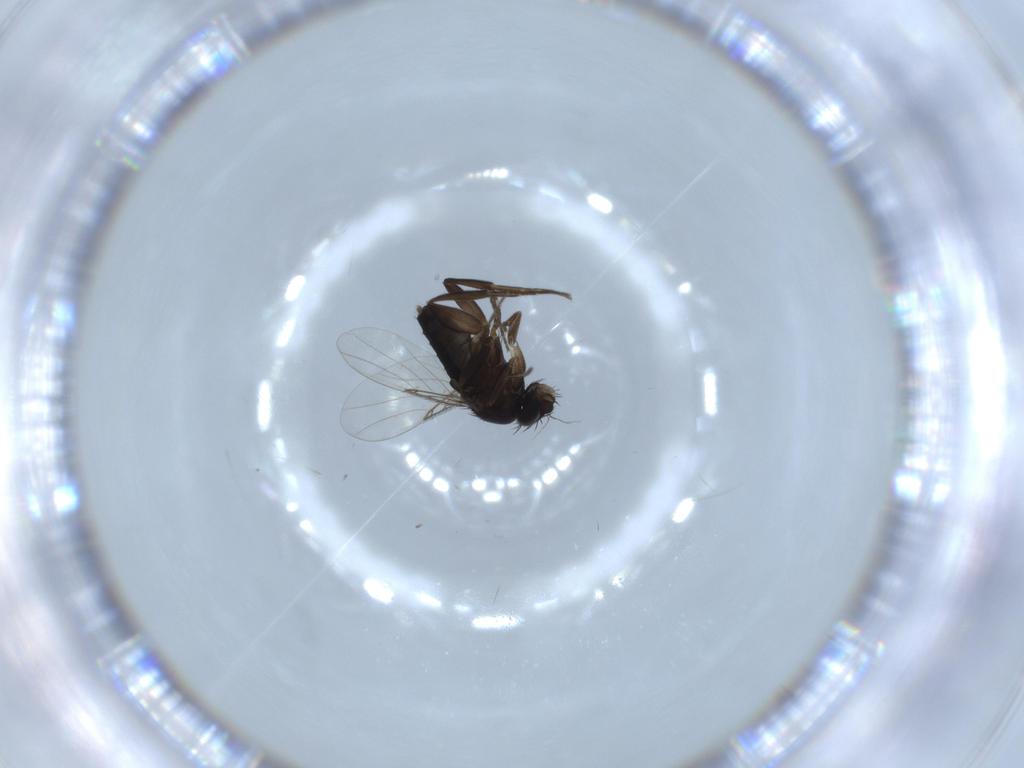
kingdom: Animalia
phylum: Arthropoda
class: Insecta
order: Diptera
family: Phoridae
